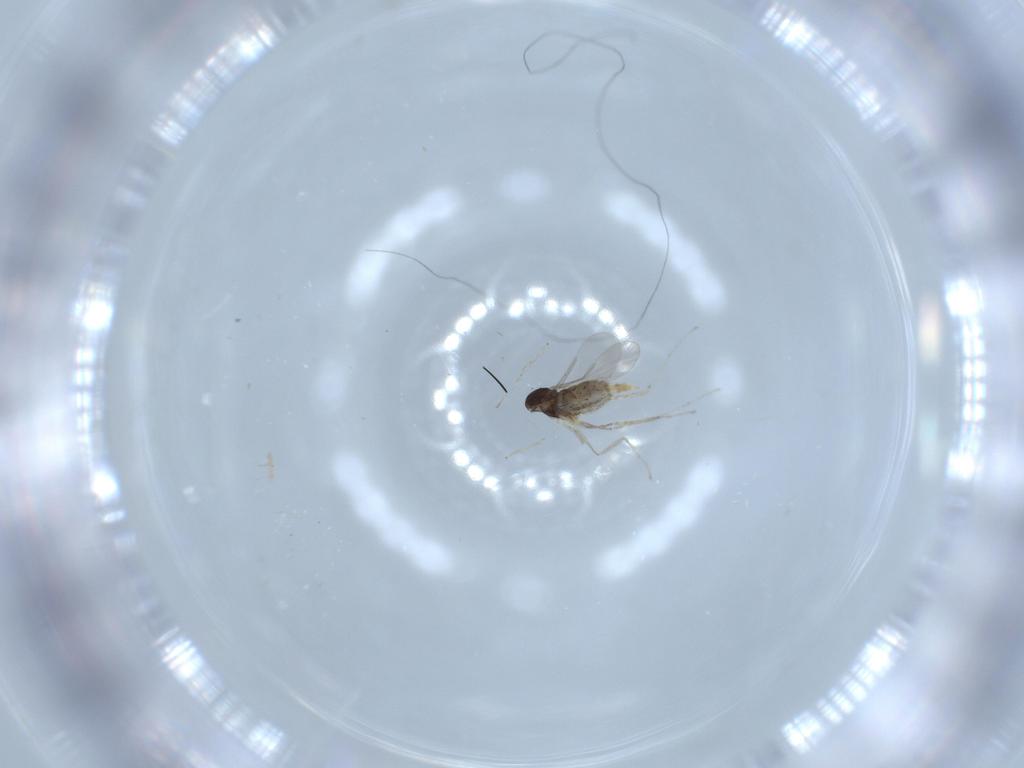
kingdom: Animalia
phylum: Arthropoda
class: Insecta
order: Diptera
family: Cecidomyiidae
